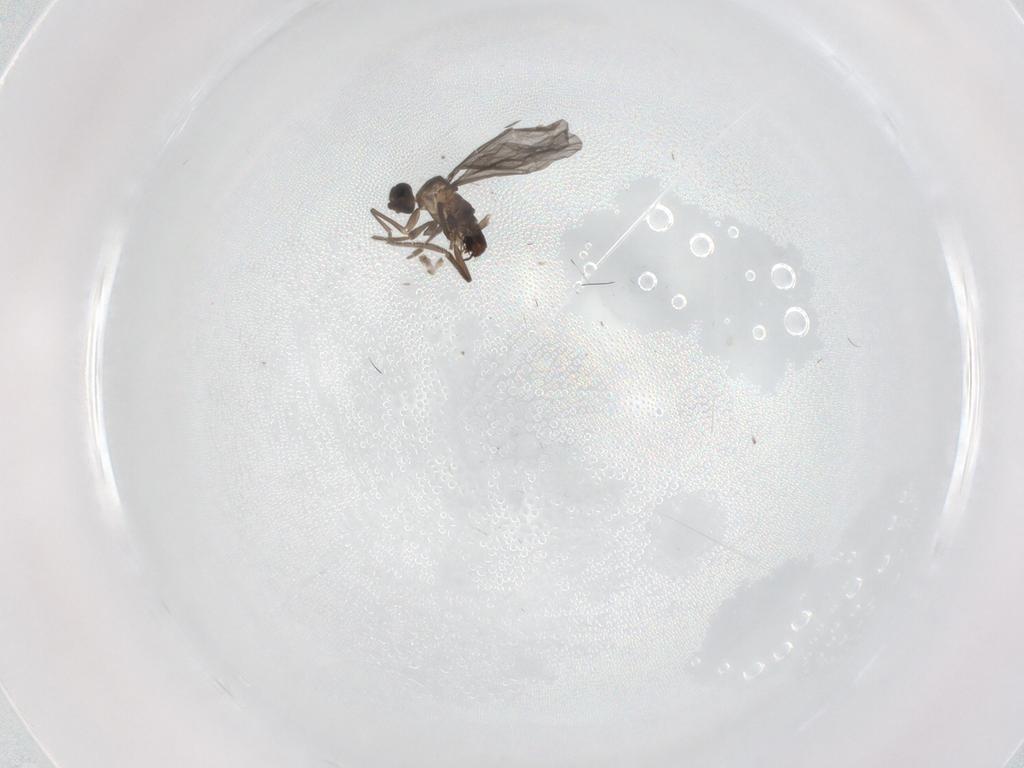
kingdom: Animalia
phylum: Arthropoda
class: Insecta
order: Diptera
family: Phoridae
